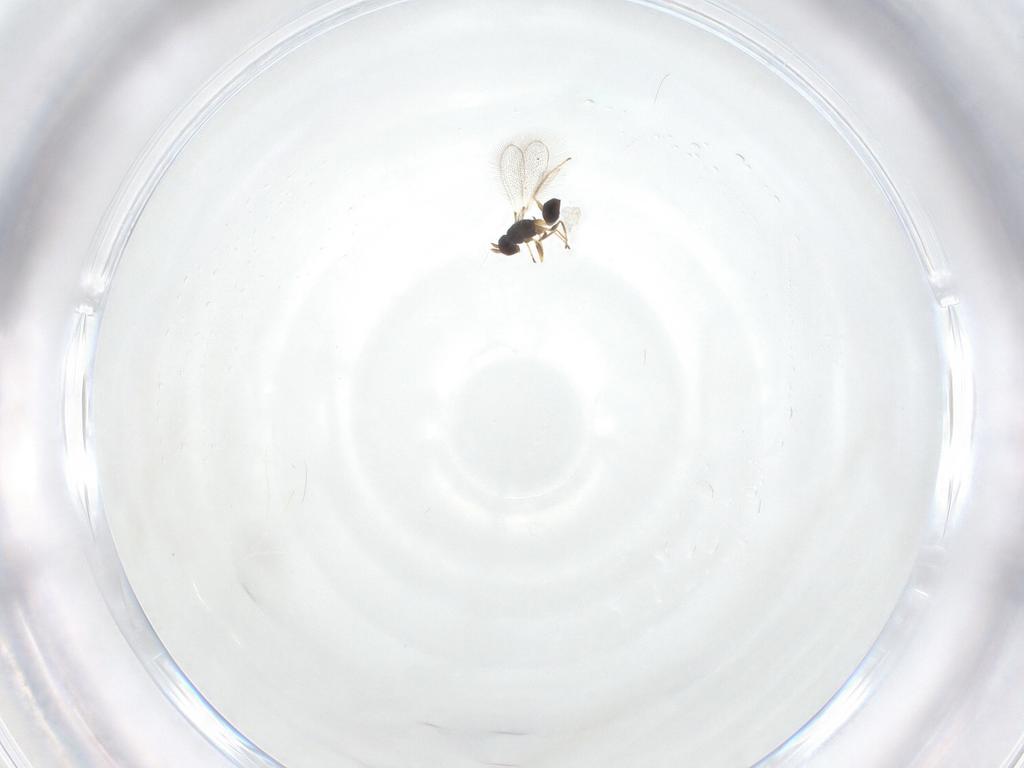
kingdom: Animalia
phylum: Arthropoda
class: Insecta
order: Hymenoptera
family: Mymaridae
